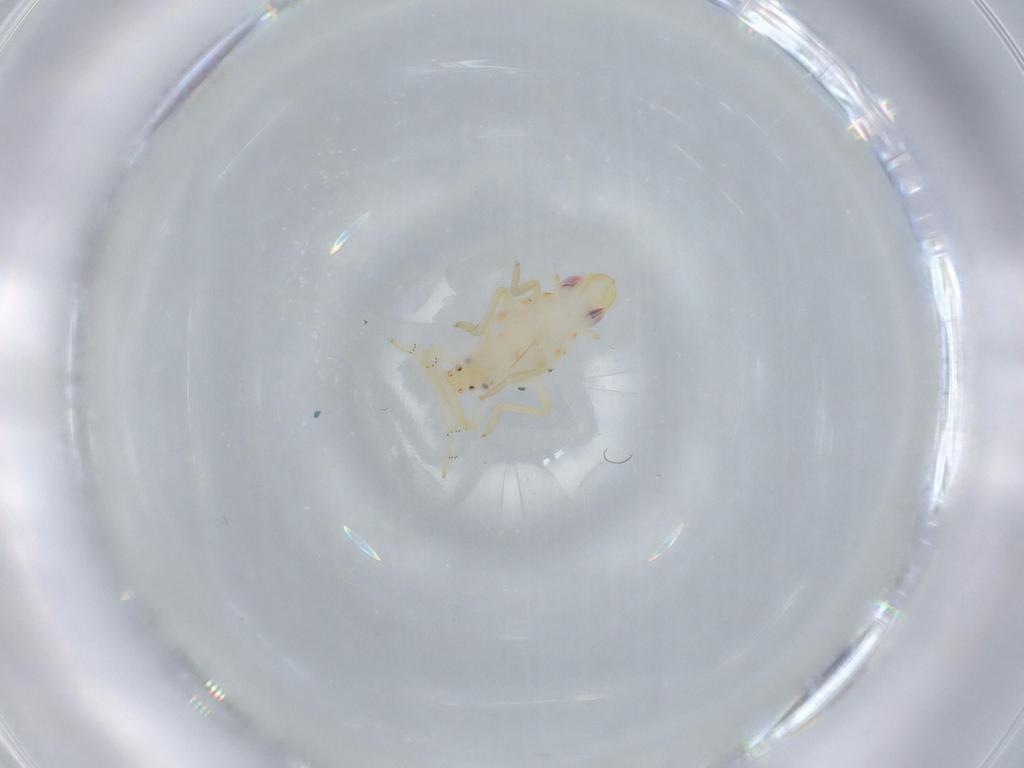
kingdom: Animalia
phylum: Arthropoda
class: Insecta
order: Hemiptera
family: Tropiduchidae
